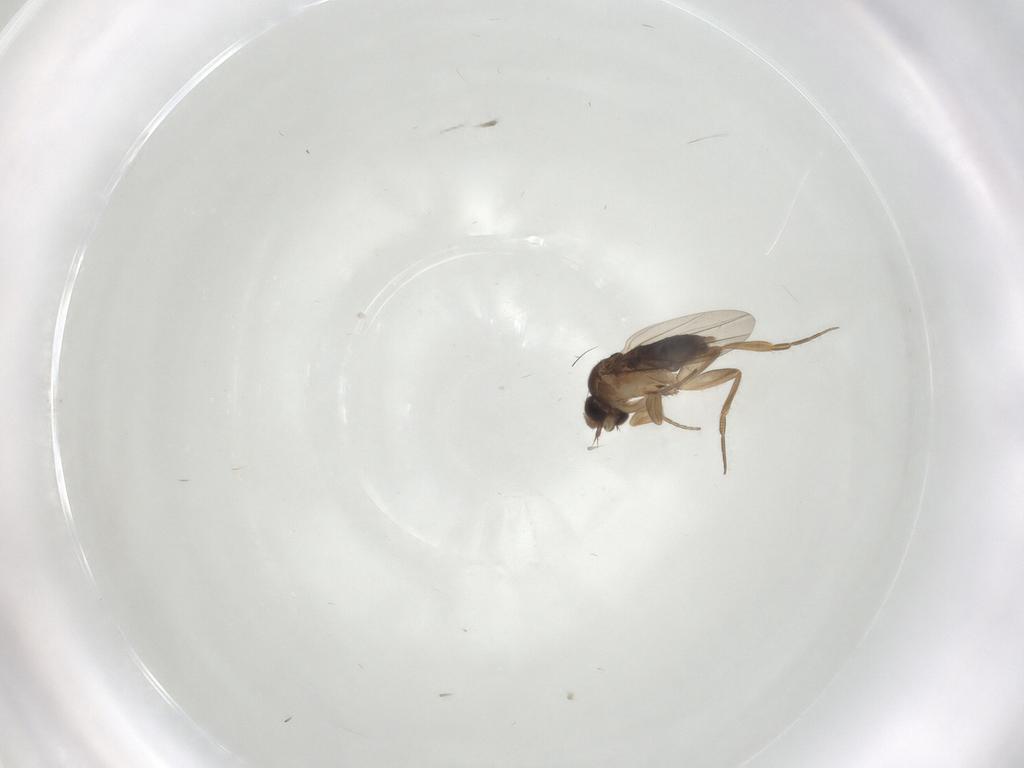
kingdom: Animalia
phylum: Arthropoda
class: Insecta
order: Diptera
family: Phoridae
